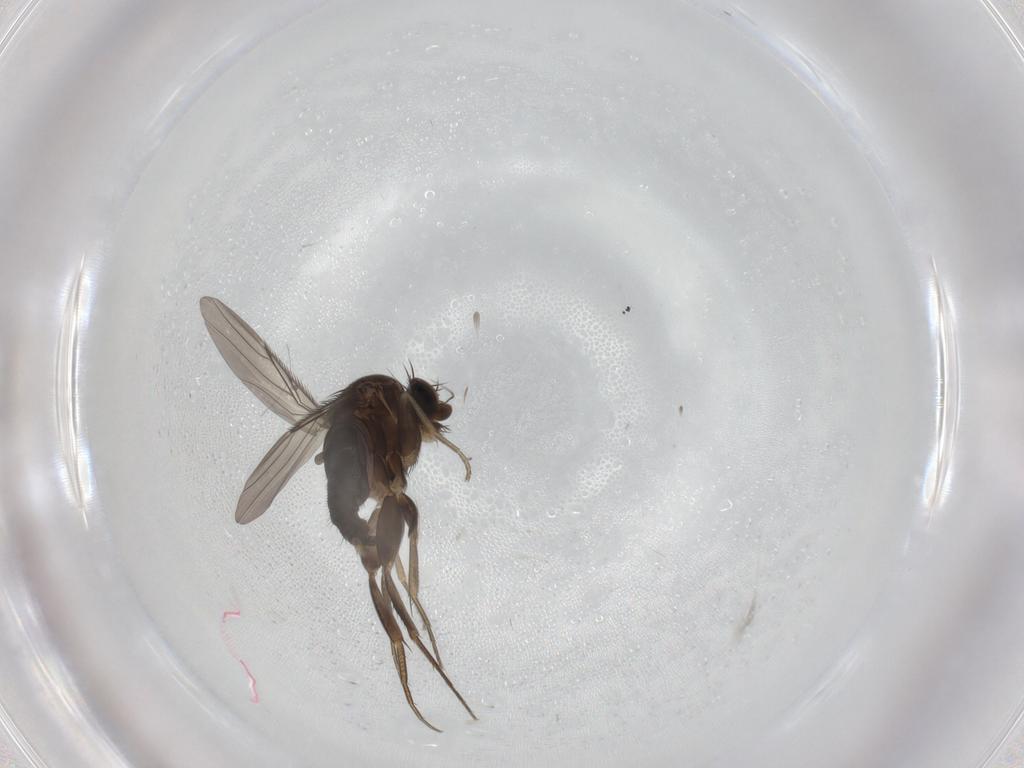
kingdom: Animalia
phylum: Arthropoda
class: Insecta
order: Diptera
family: Phoridae
